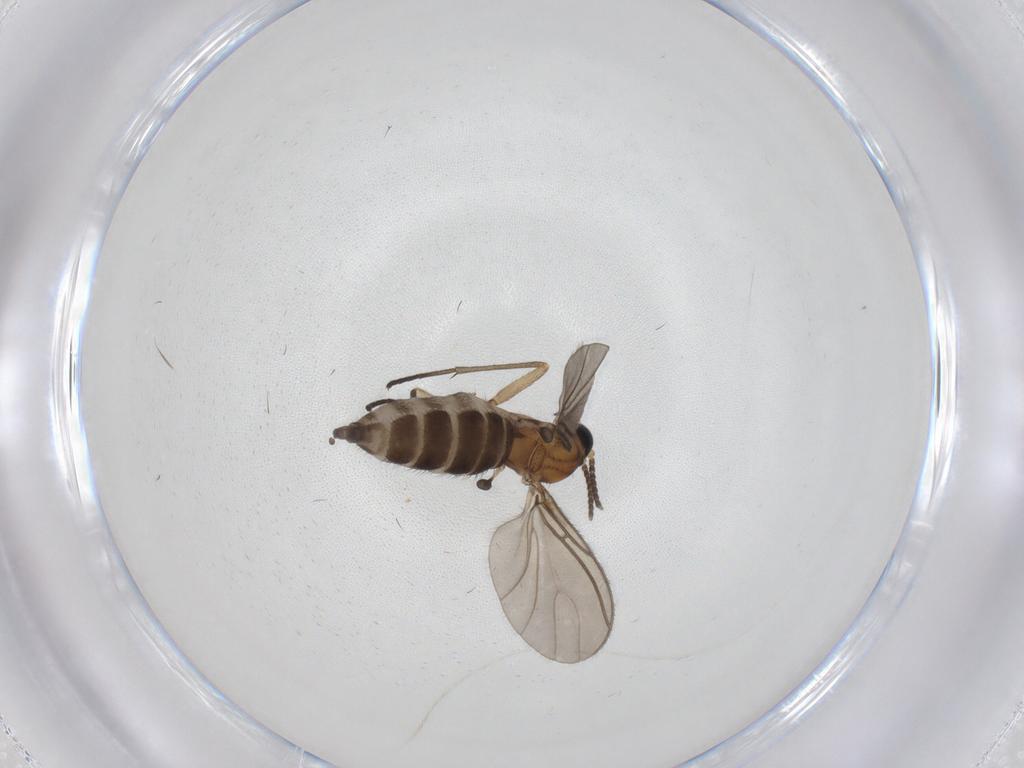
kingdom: Animalia
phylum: Arthropoda
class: Insecta
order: Diptera
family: Sciaridae
